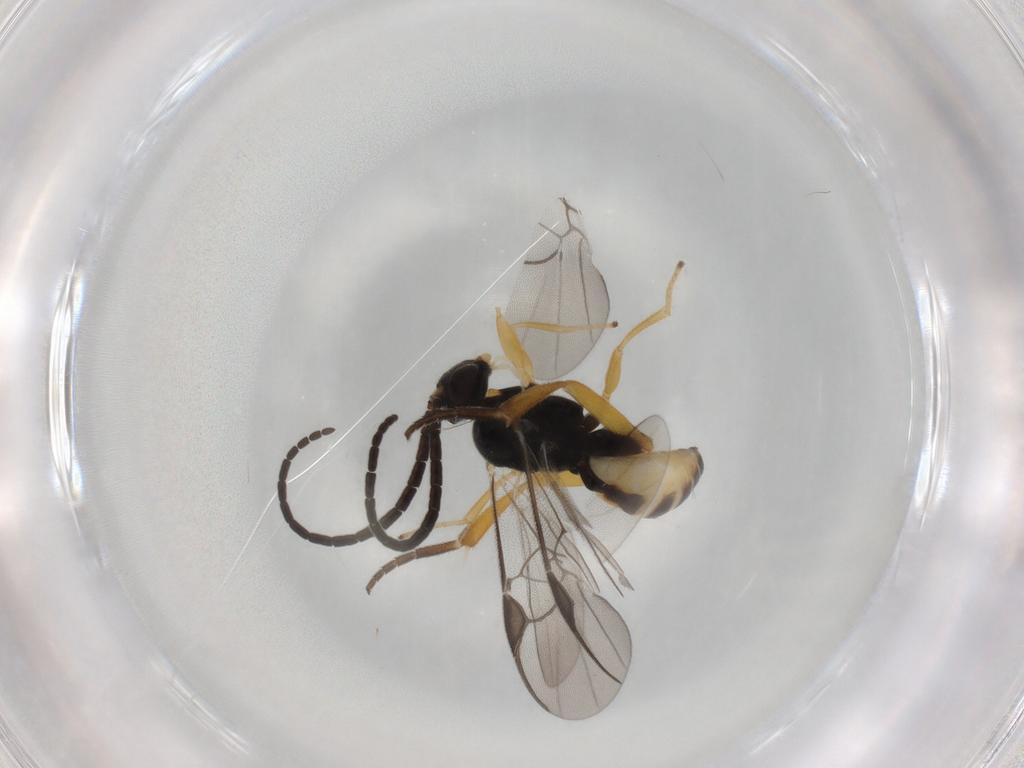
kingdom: Animalia
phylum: Arthropoda
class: Insecta
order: Hymenoptera
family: Braconidae
